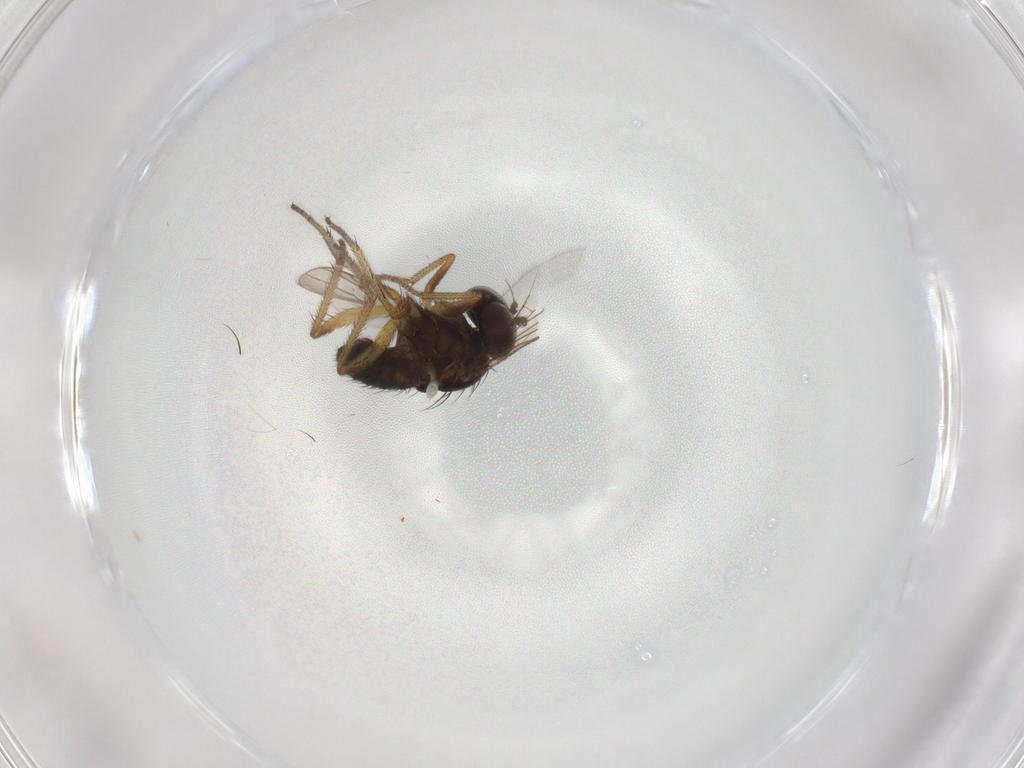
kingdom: Animalia
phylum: Arthropoda
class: Insecta
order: Diptera
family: Dolichopodidae
